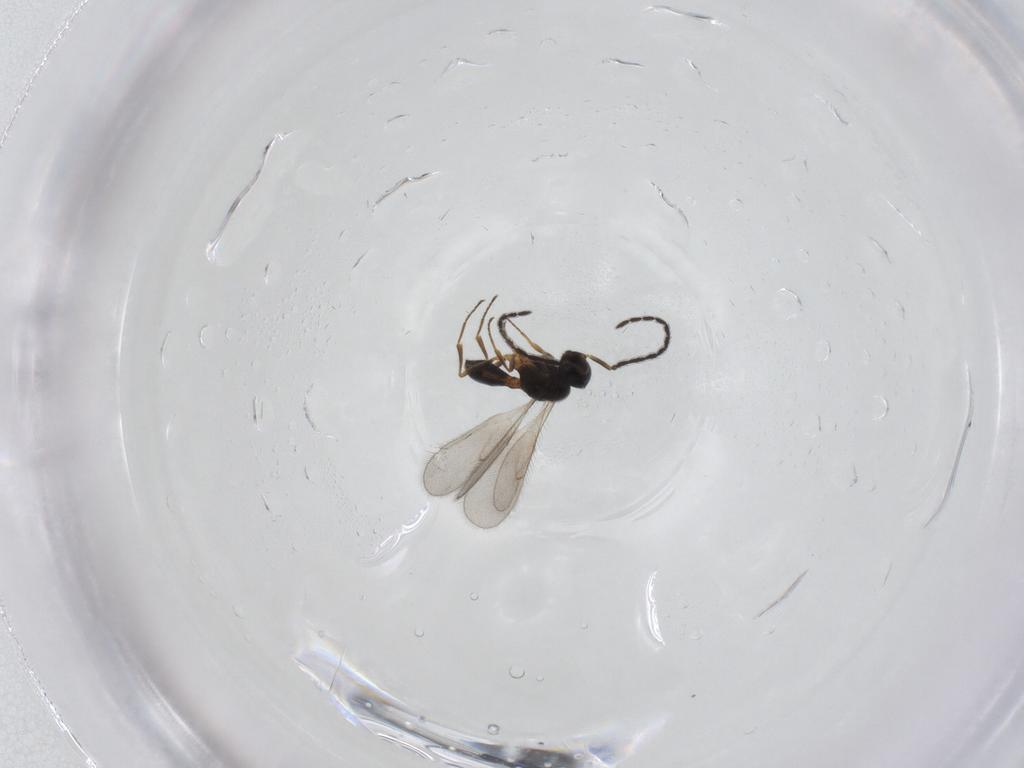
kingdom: Animalia
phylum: Arthropoda
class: Insecta
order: Hymenoptera
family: Scelionidae
